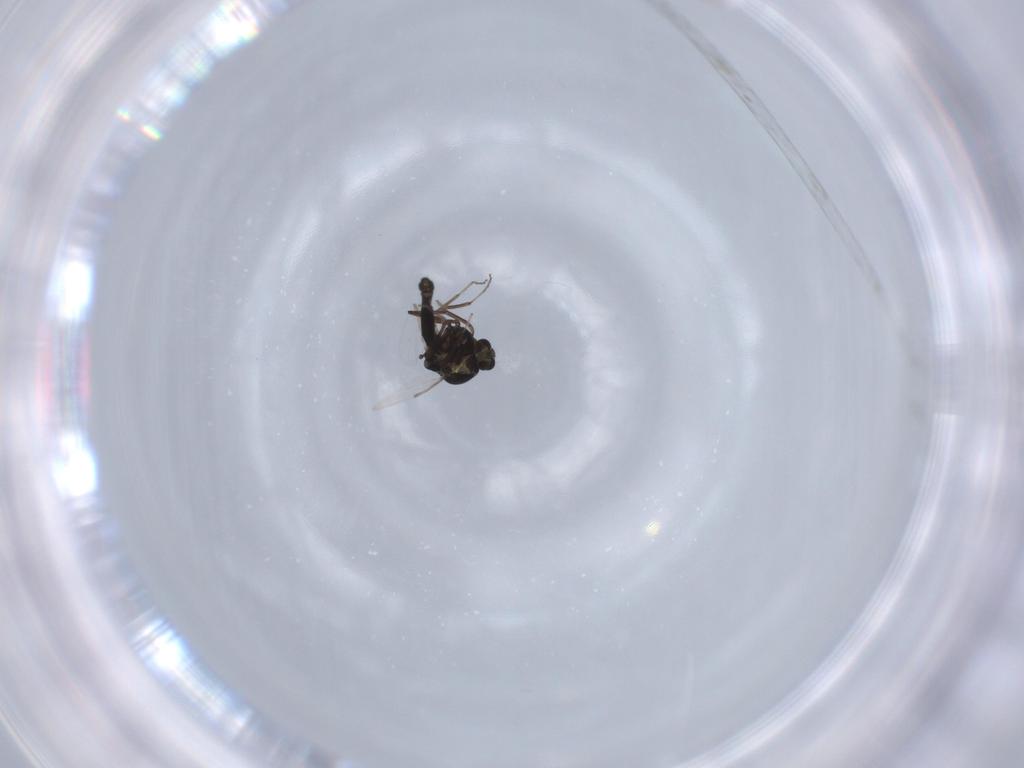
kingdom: Animalia
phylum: Arthropoda
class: Insecta
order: Diptera
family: Ceratopogonidae
